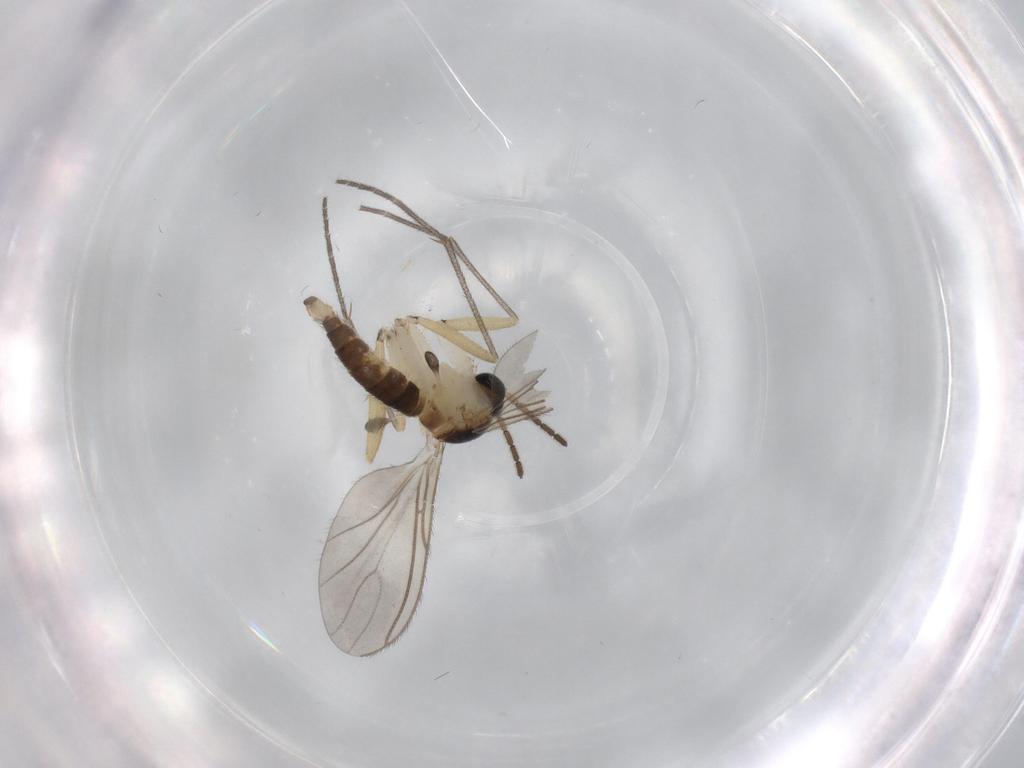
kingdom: Animalia
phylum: Arthropoda
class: Insecta
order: Diptera
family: Sciaridae
